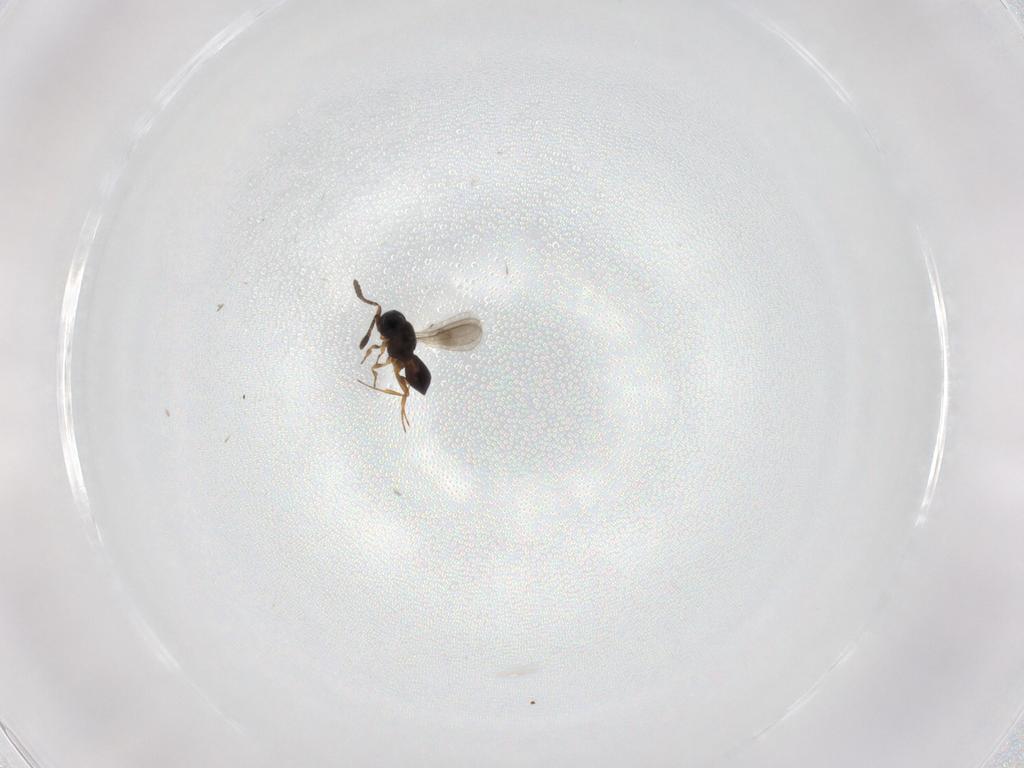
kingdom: Animalia
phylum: Arthropoda
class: Insecta
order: Hymenoptera
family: Scelionidae
